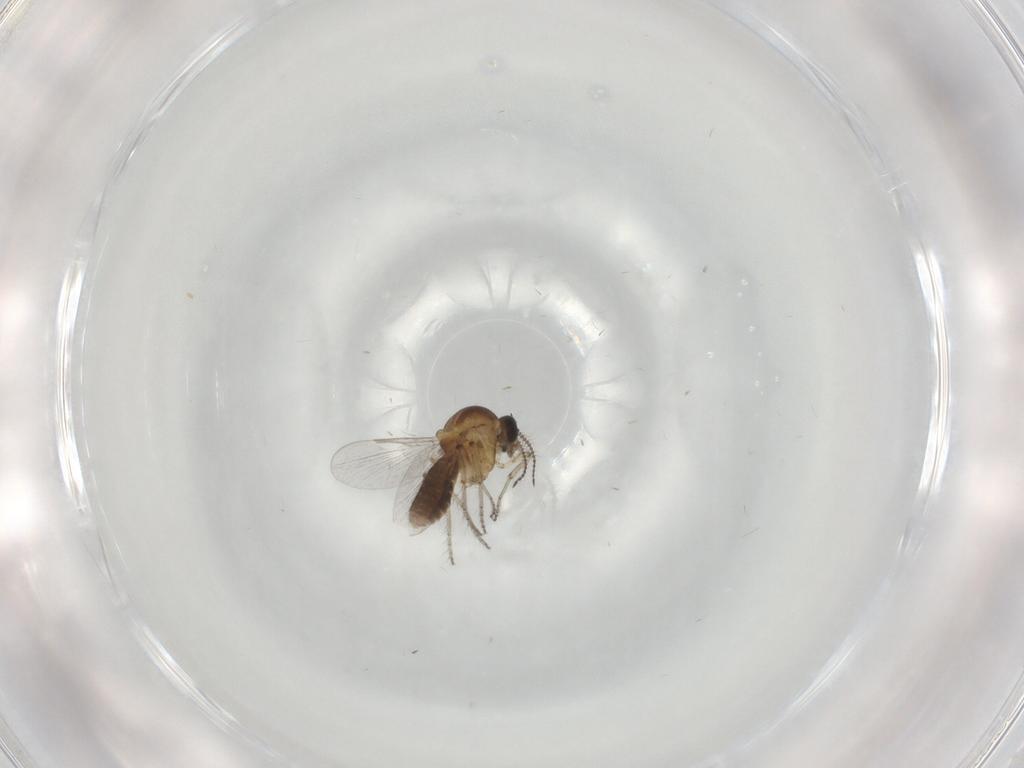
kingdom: Animalia
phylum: Arthropoda
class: Insecta
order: Diptera
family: Ceratopogonidae
